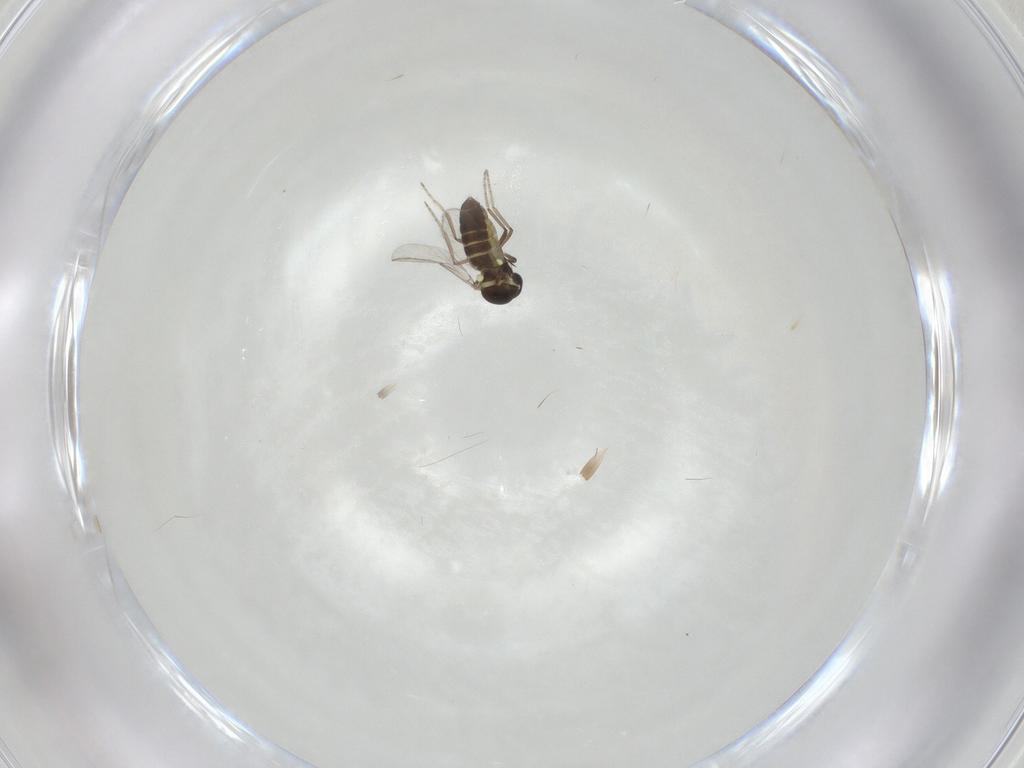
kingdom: Animalia
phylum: Arthropoda
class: Insecta
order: Diptera
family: Ceratopogonidae
